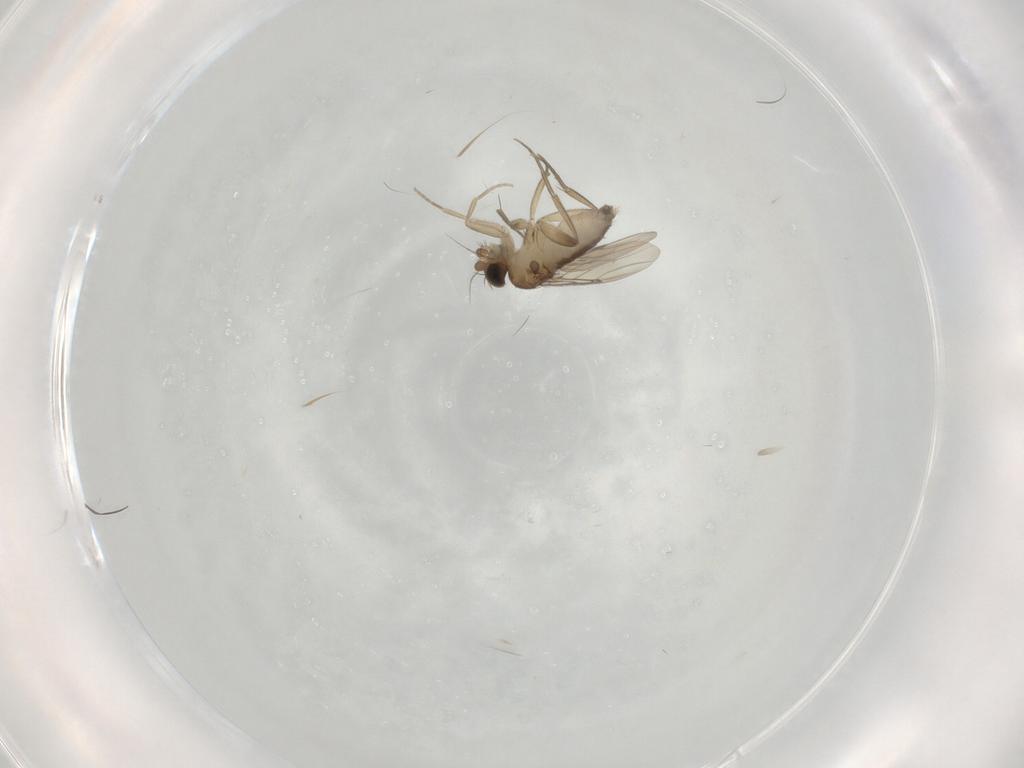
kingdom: Animalia
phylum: Arthropoda
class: Insecta
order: Diptera
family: Phoridae
